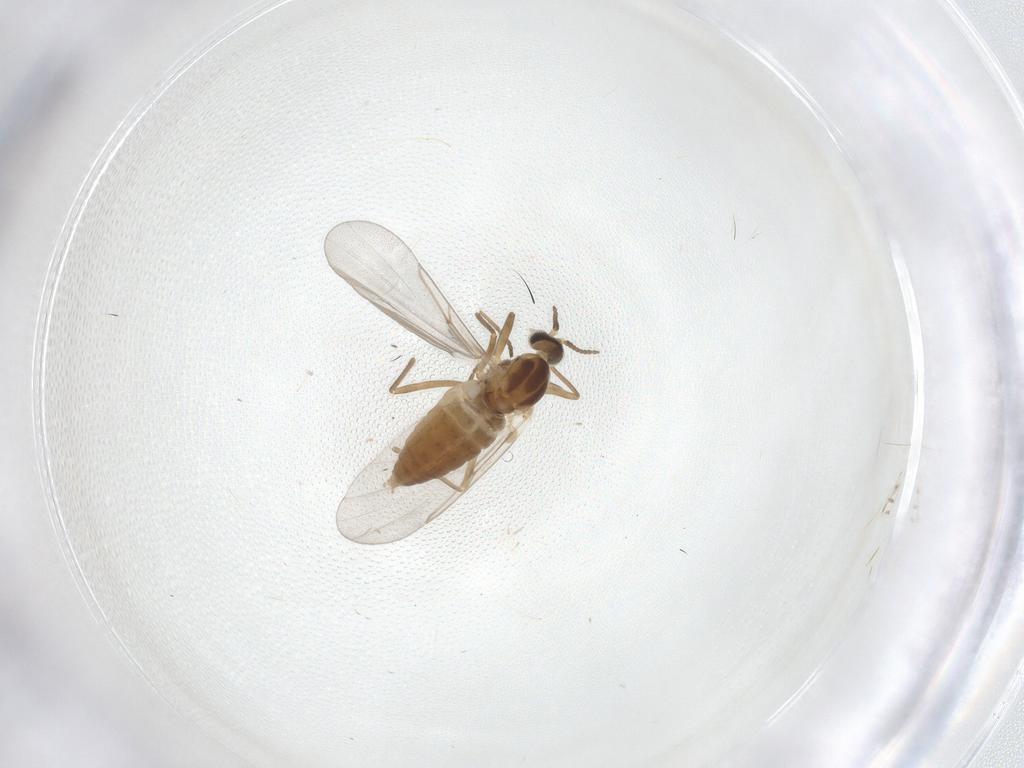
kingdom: Animalia
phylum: Arthropoda
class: Insecta
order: Diptera
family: Cecidomyiidae
